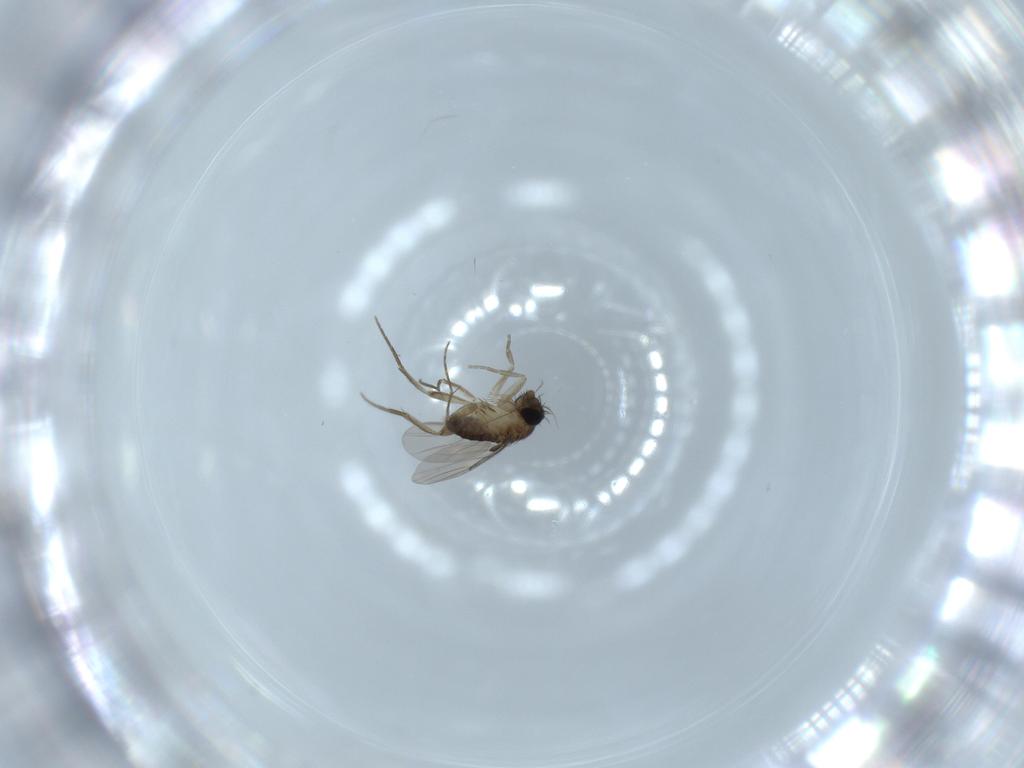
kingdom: Animalia
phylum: Arthropoda
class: Insecta
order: Diptera
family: Phoridae
